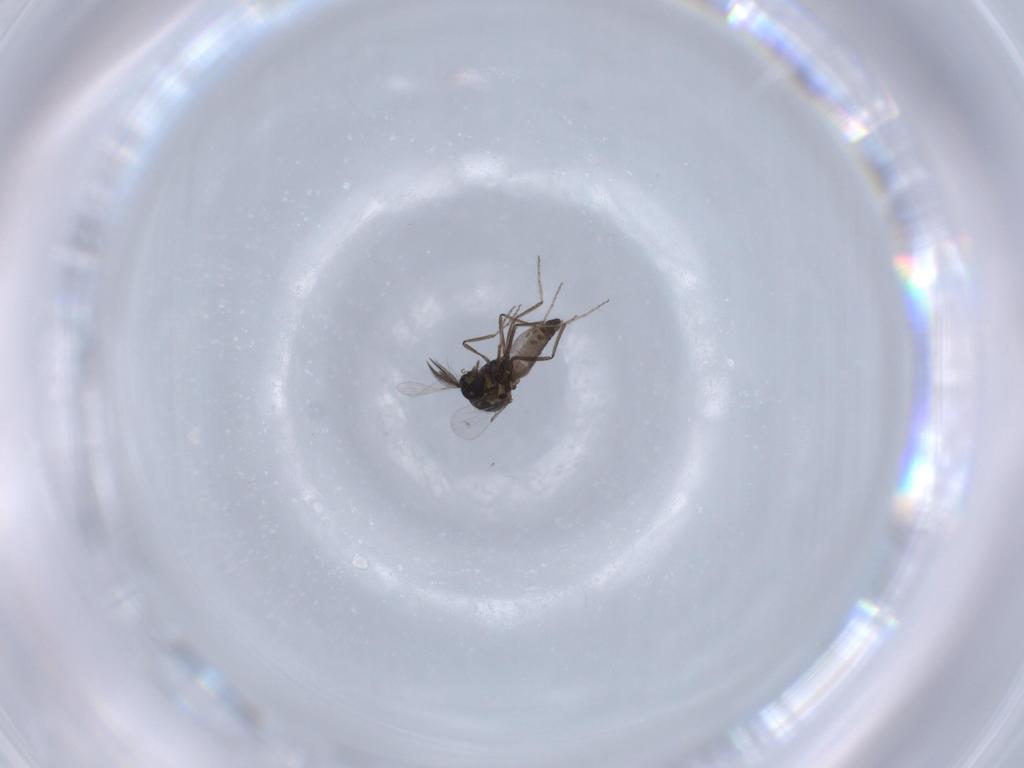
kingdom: Animalia
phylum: Arthropoda
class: Insecta
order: Diptera
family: Ceratopogonidae
